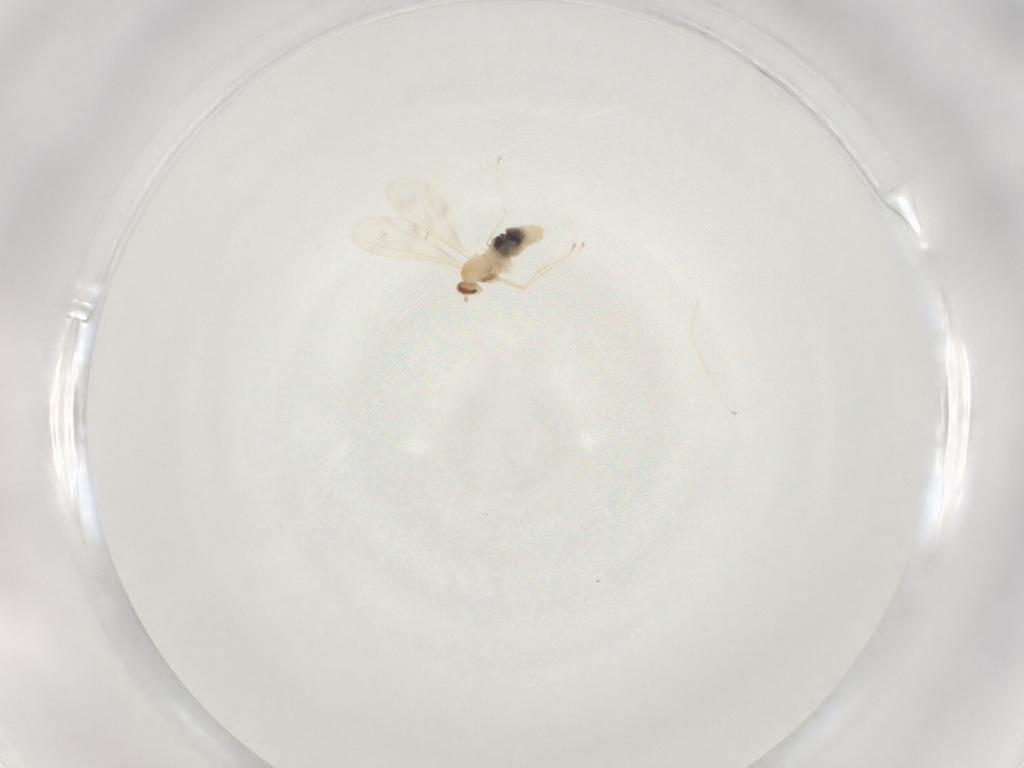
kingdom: Animalia
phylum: Arthropoda
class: Insecta
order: Diptera
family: Cecidomyiidae
